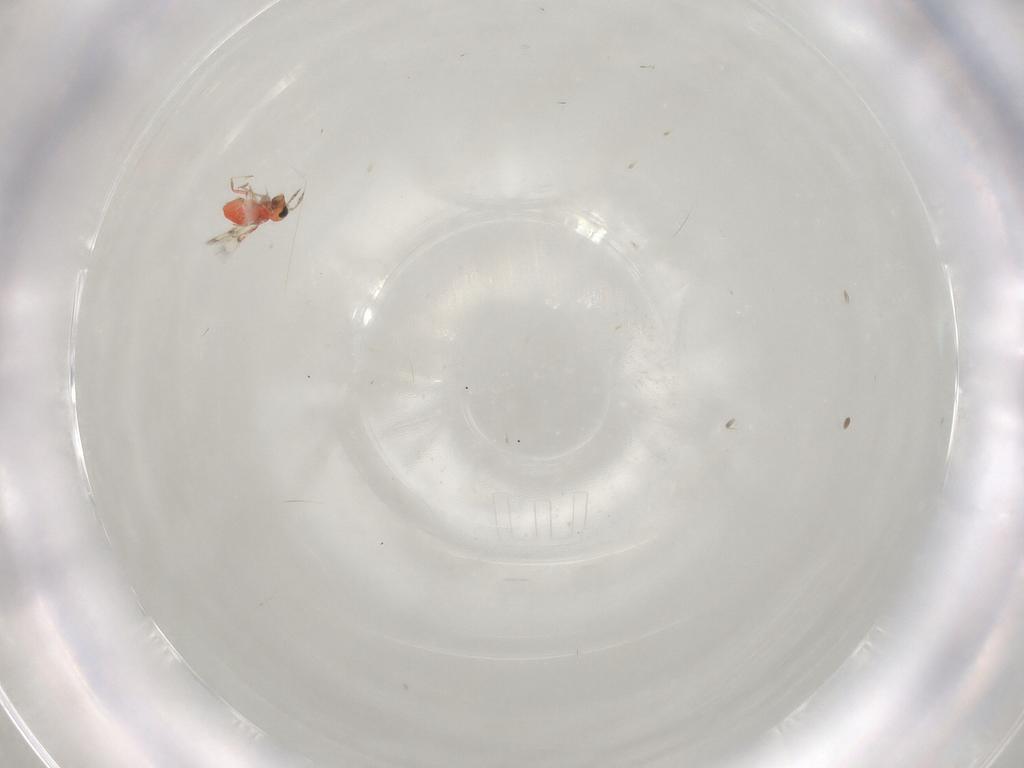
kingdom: Animalia
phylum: Arthropoda
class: Insecta
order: Hymenoptera
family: Trichogrammatidae
